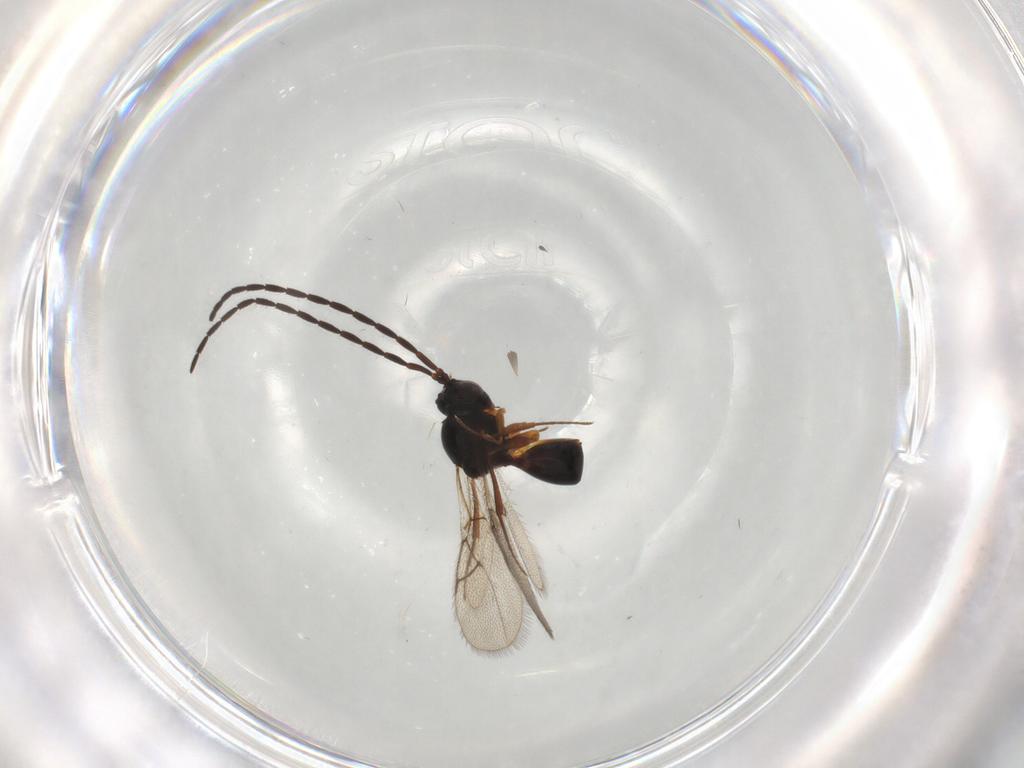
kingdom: Animalia
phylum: Arthropoda
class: Insecta
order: Hymenoptera
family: Figitidae
